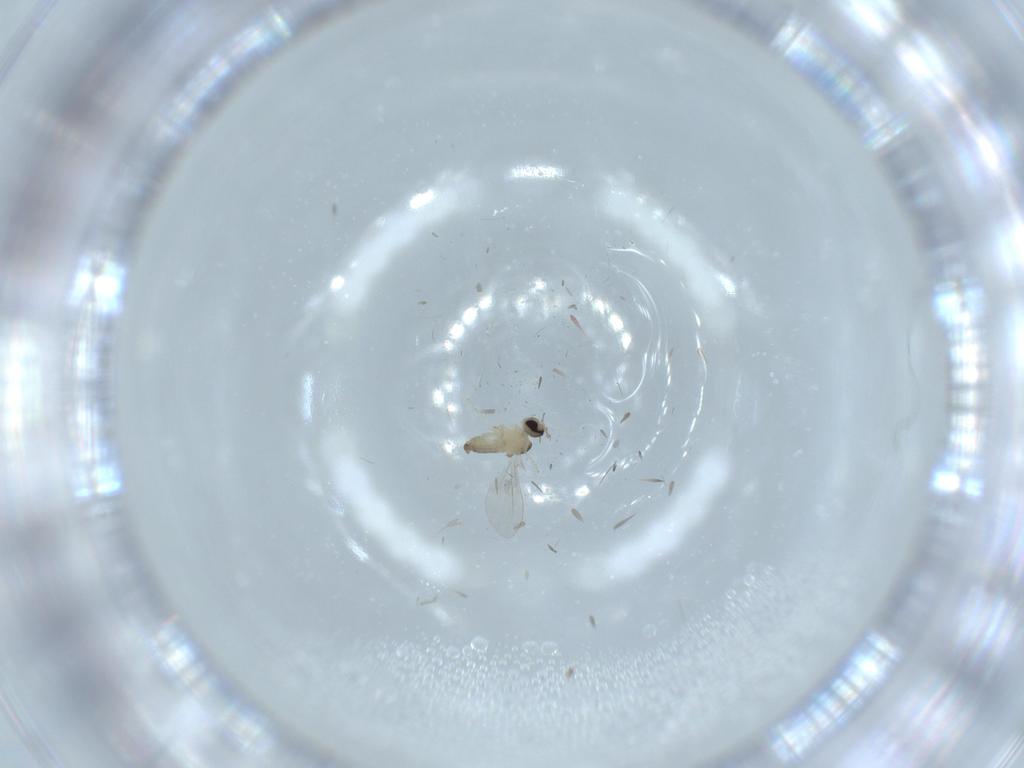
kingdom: Animalia
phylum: Arthropoda
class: Insecta
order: Diptera
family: Cecidomyiidae
